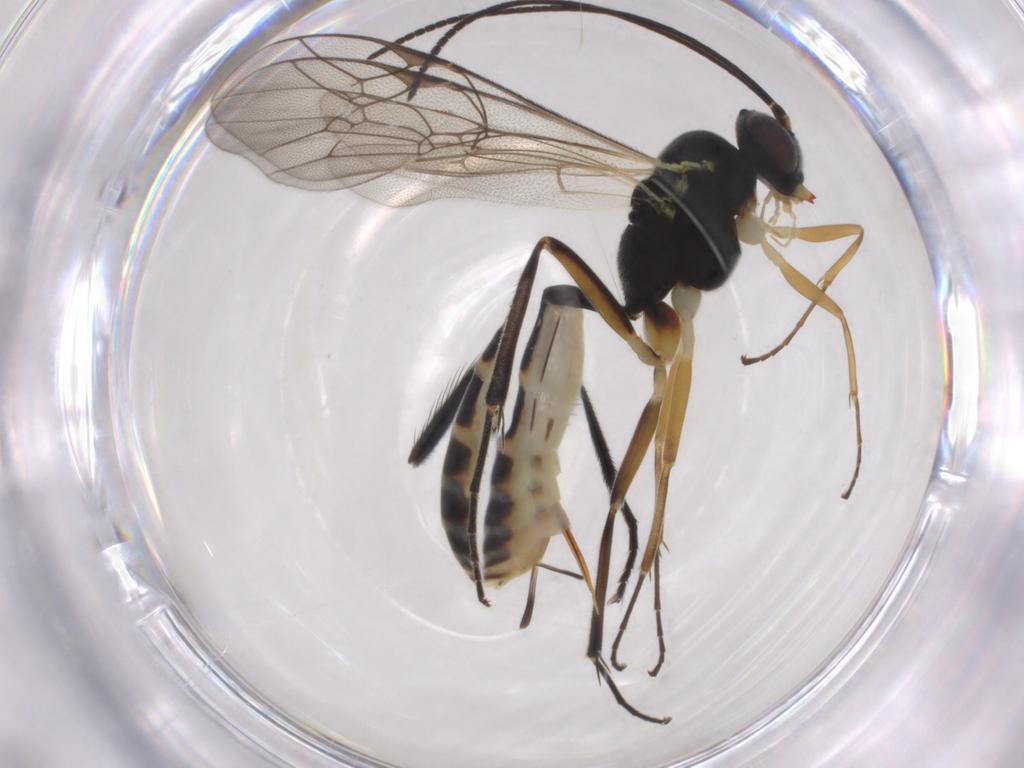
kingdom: Animalia
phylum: Arthropoda
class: Insecta
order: Hymenoptera
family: Ichneumonidae
